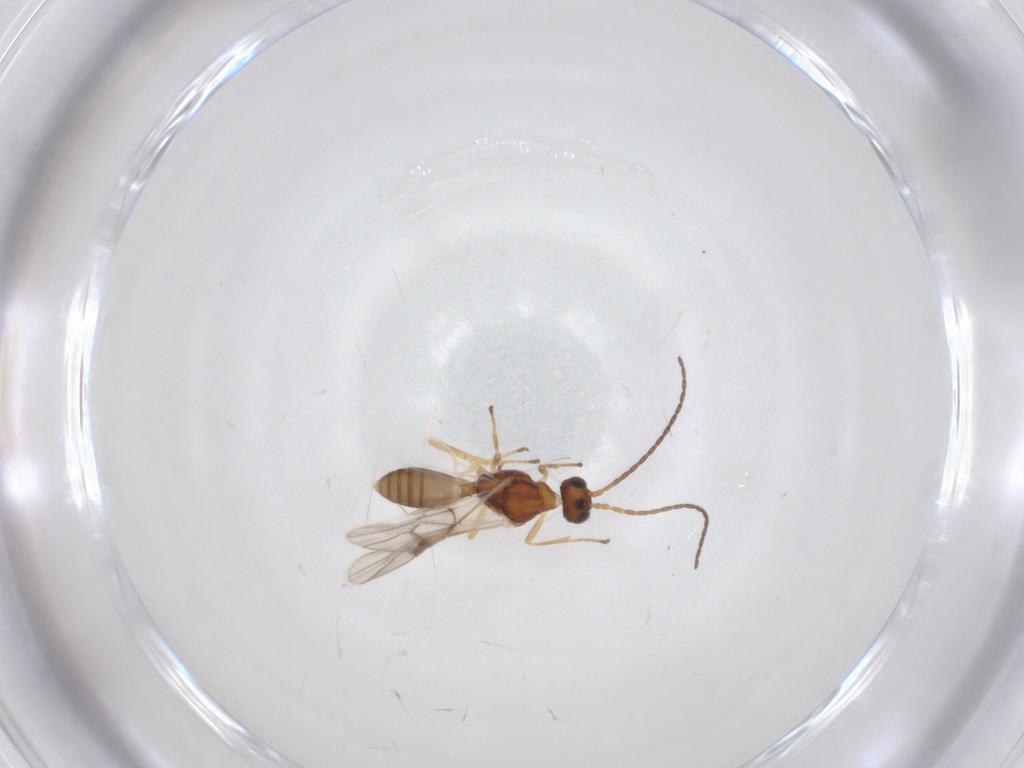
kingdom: Animalia
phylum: Arthropoda
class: Insecta
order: Hymenoptera
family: Braconidae
